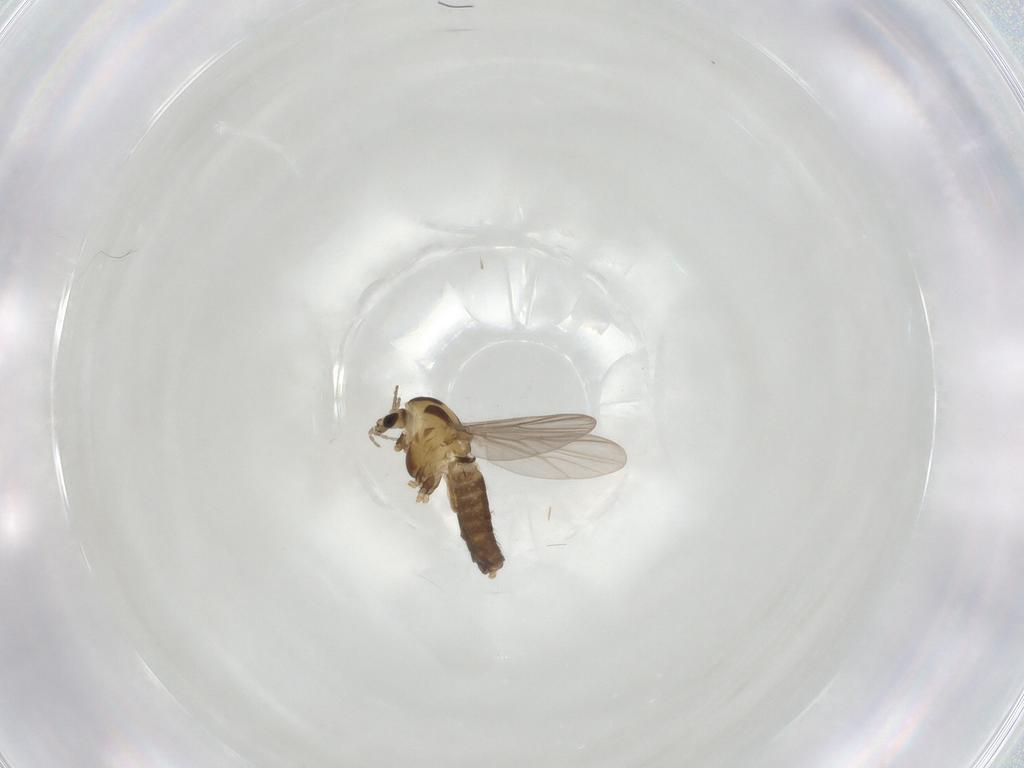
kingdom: Animalia
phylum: Arthropoda
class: Insecta
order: Diptera
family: Chironomidae
